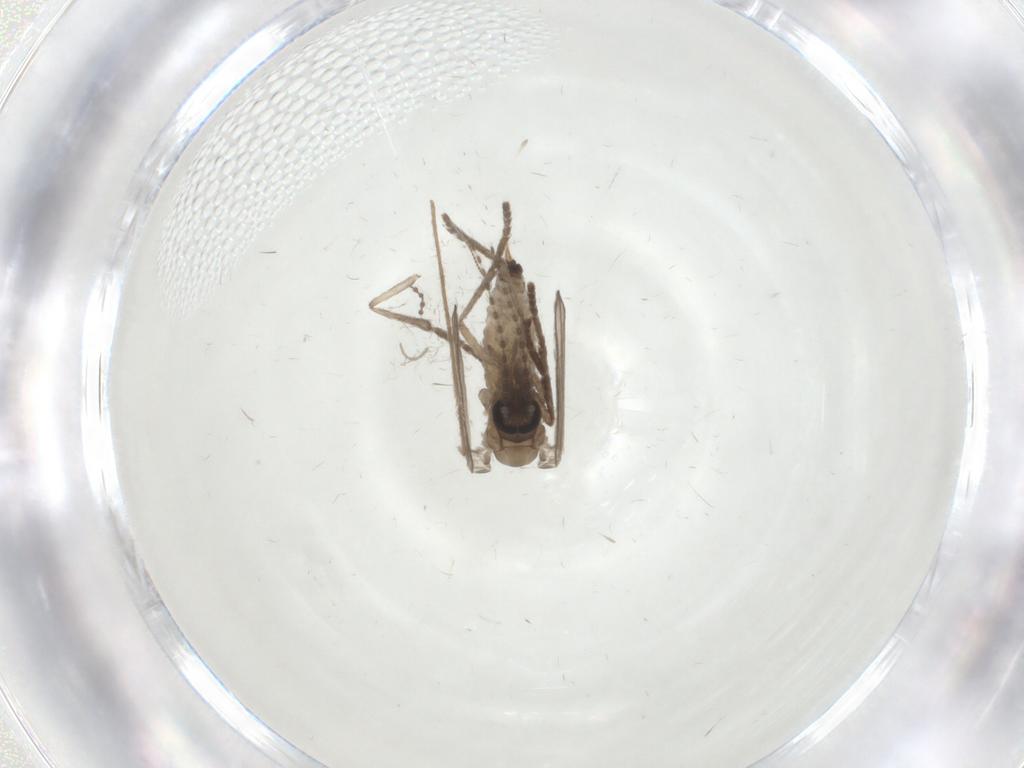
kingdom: Animalia
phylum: Arthropoda
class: Insecta
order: Diptera
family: Psychodidae
